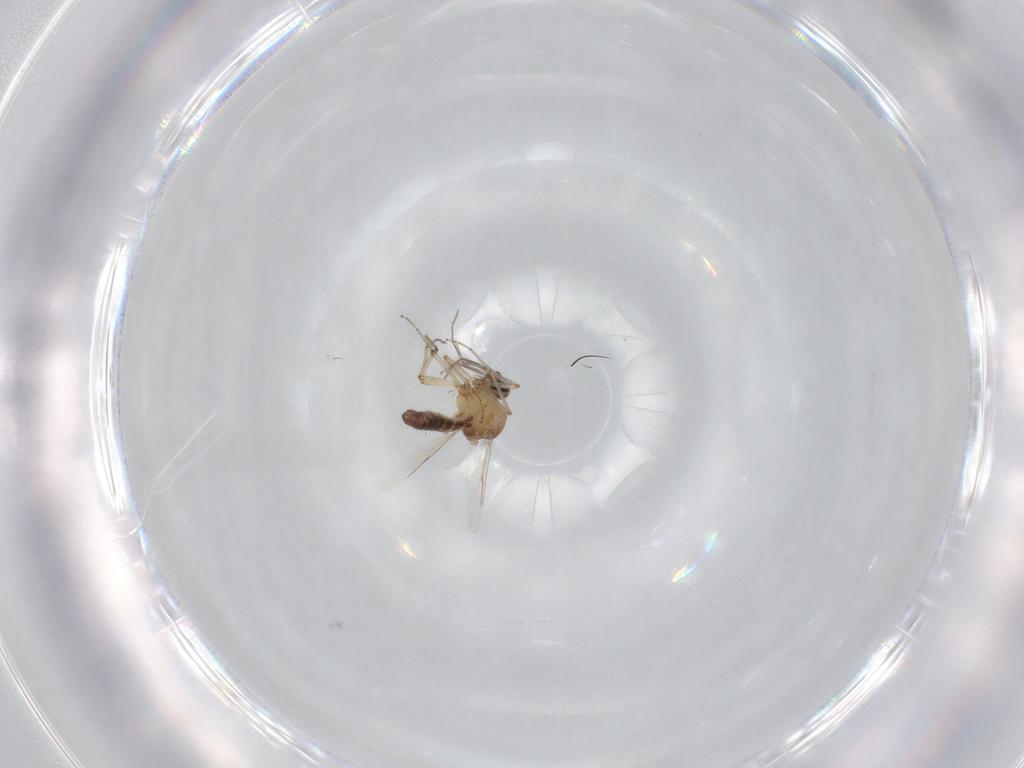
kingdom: Animalia
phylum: Arthropoda
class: Insecta
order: Diptera
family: Ceratopogonidae
